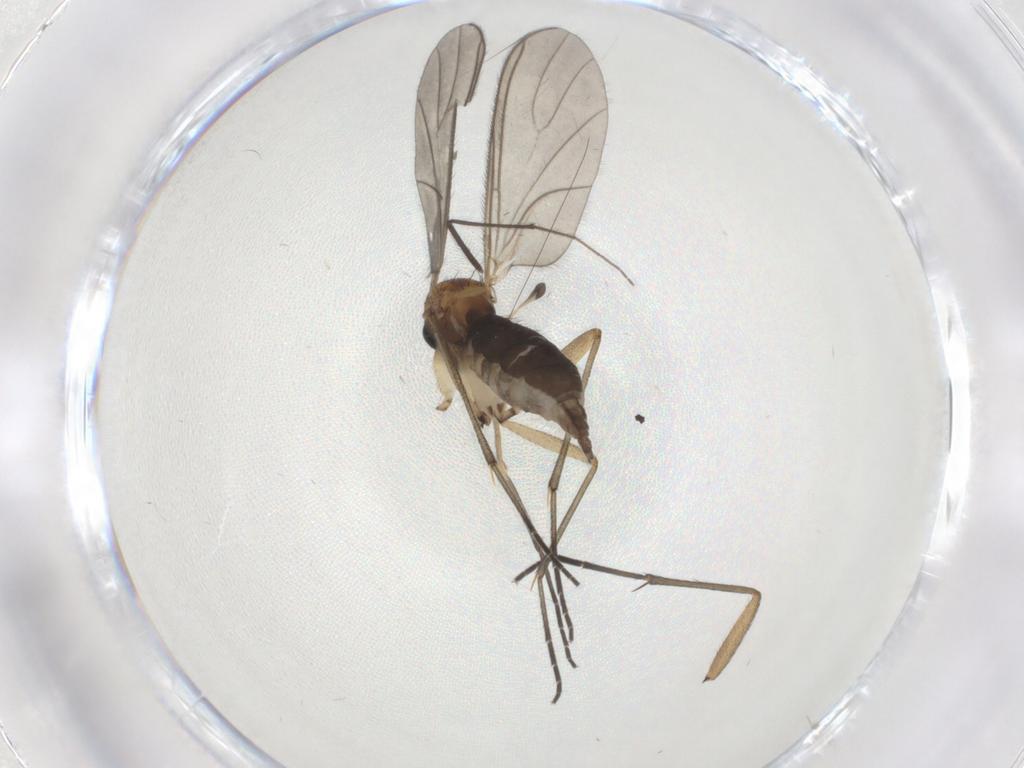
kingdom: Animalia
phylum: Arthropoda
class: Insecta
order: Diptera
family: Sciaridae
